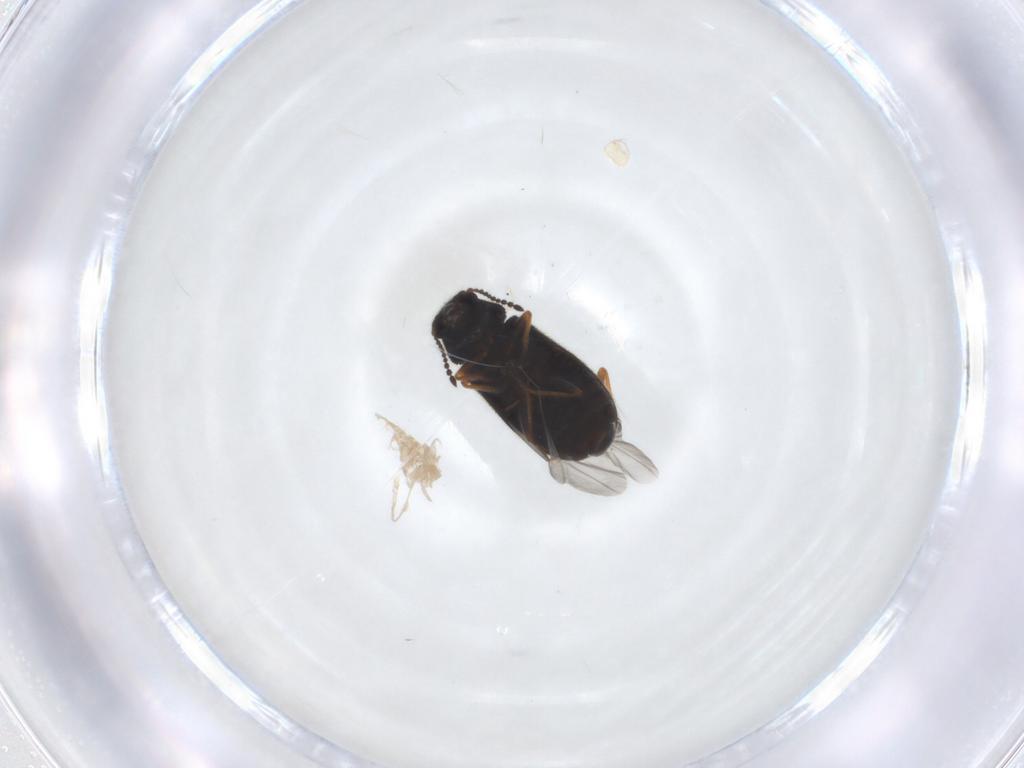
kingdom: Animalia
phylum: Arthropoda
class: Insecta
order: Coleoptera
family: Melyridae
